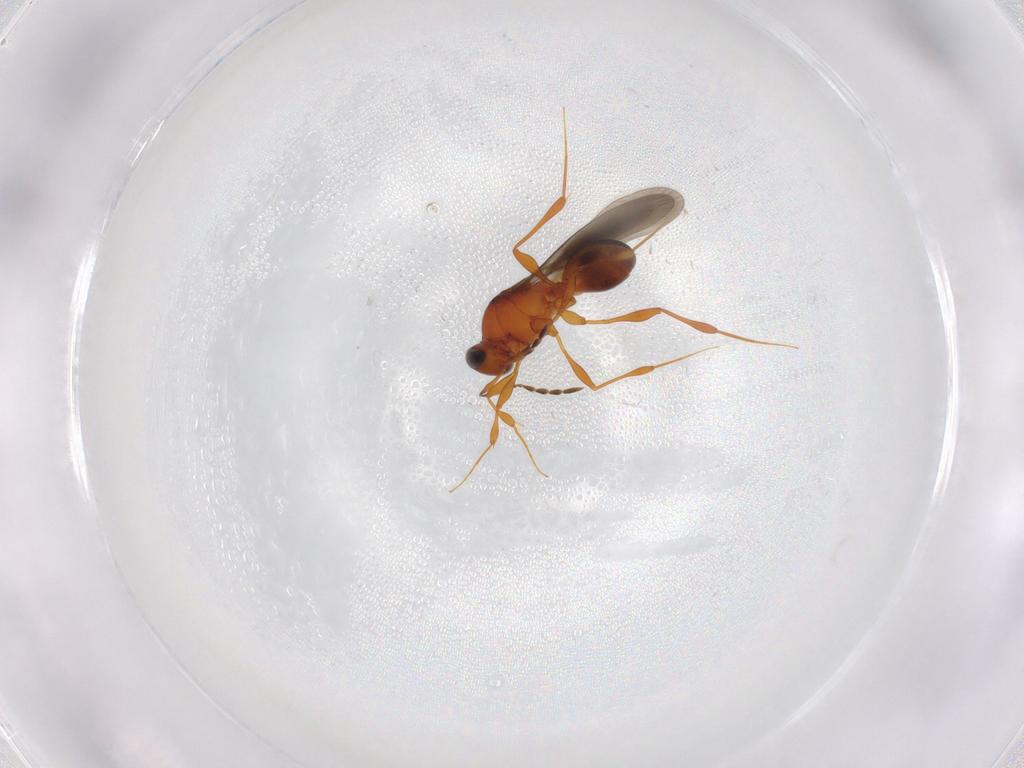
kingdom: Animalia
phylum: Arthropoda
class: Insecta
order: Hymenoptera
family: Platygastridae
